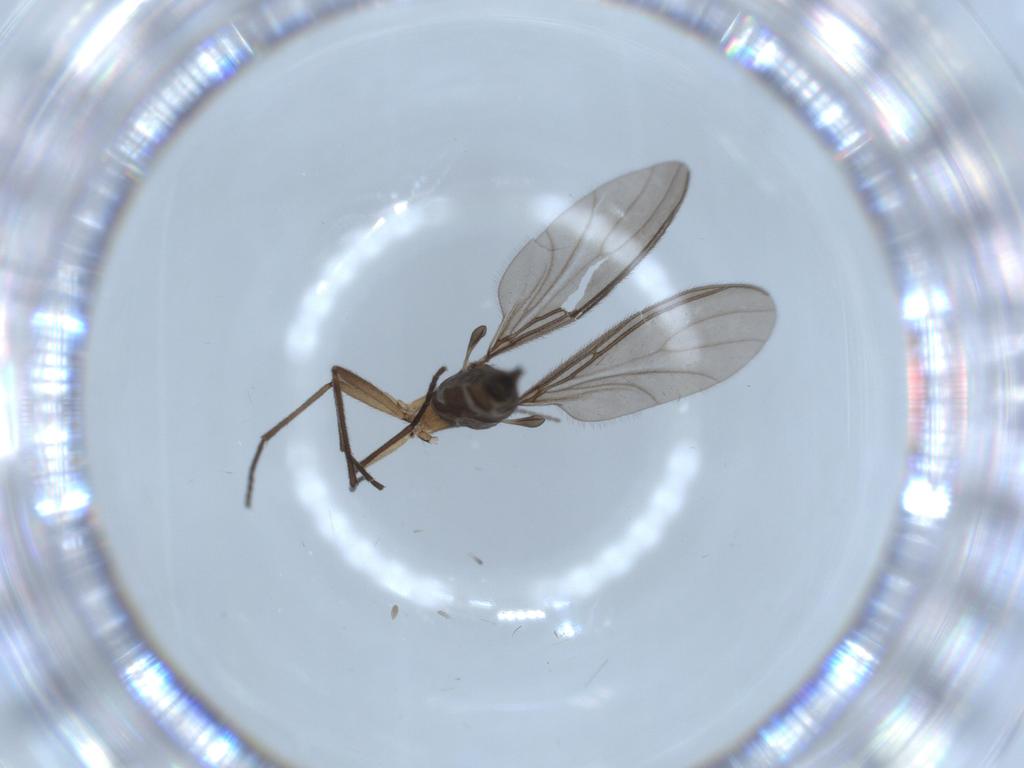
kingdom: Animalia
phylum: Arthropoda
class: Insecta
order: Diptera
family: Sciaridae
